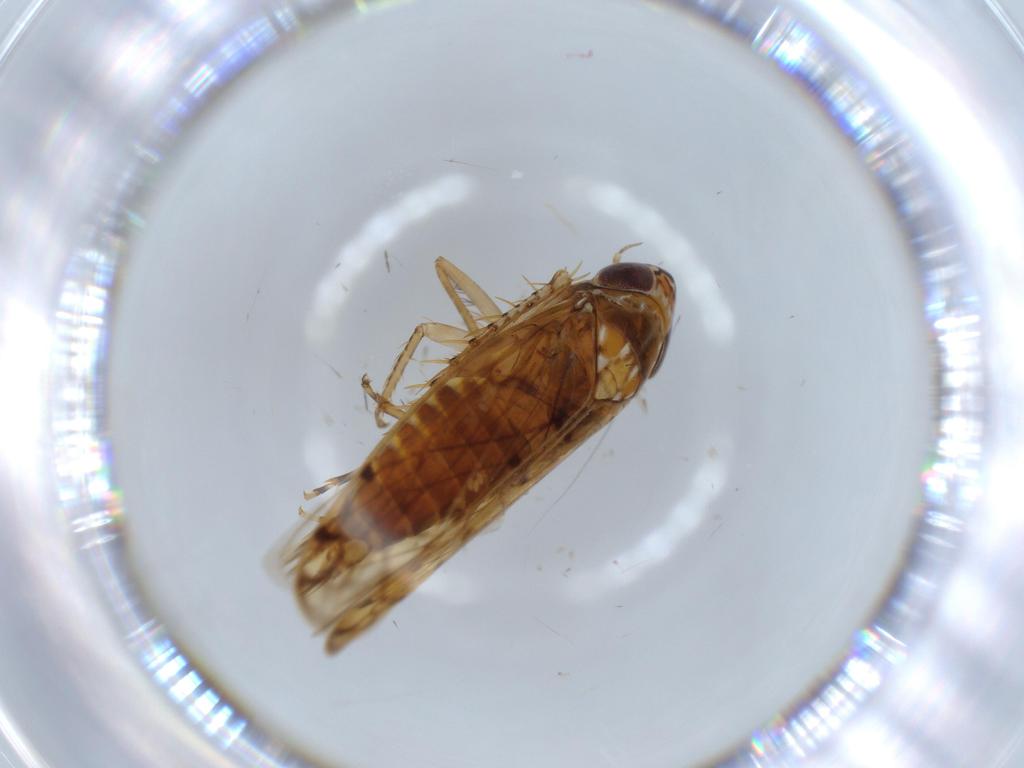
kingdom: Animalia
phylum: Arthropoda
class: Insecta
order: Hemiptera
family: Cicadellidae
